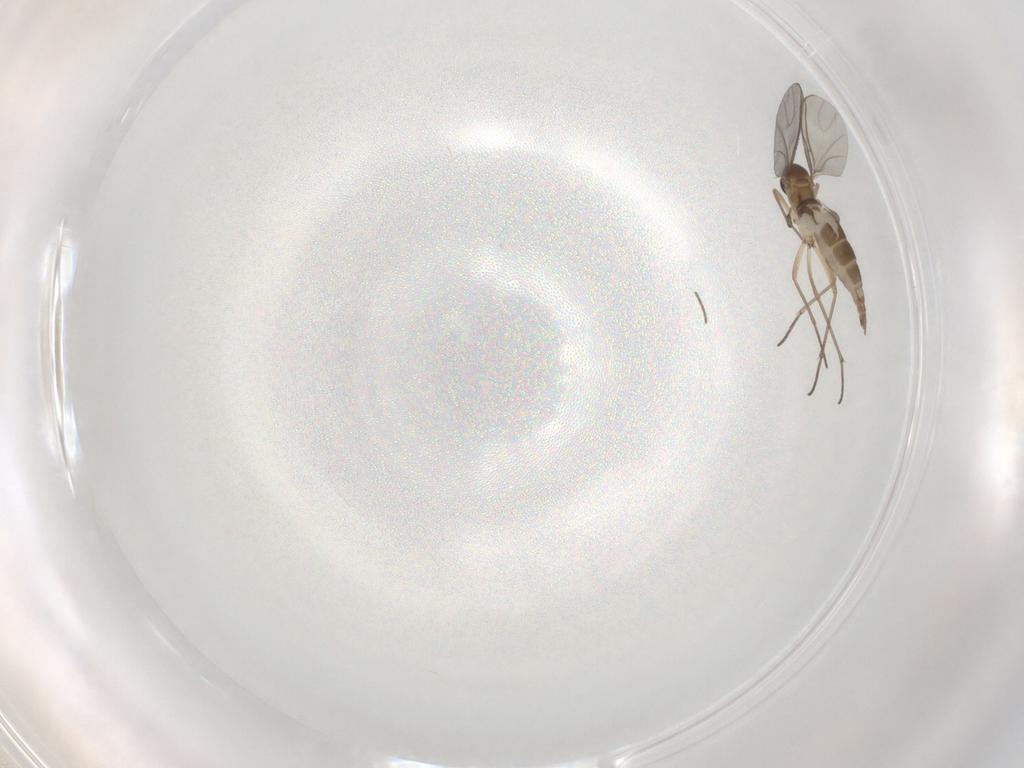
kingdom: Animalia
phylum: Arthropoda
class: Insecta
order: Diptera
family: Sciaridae
